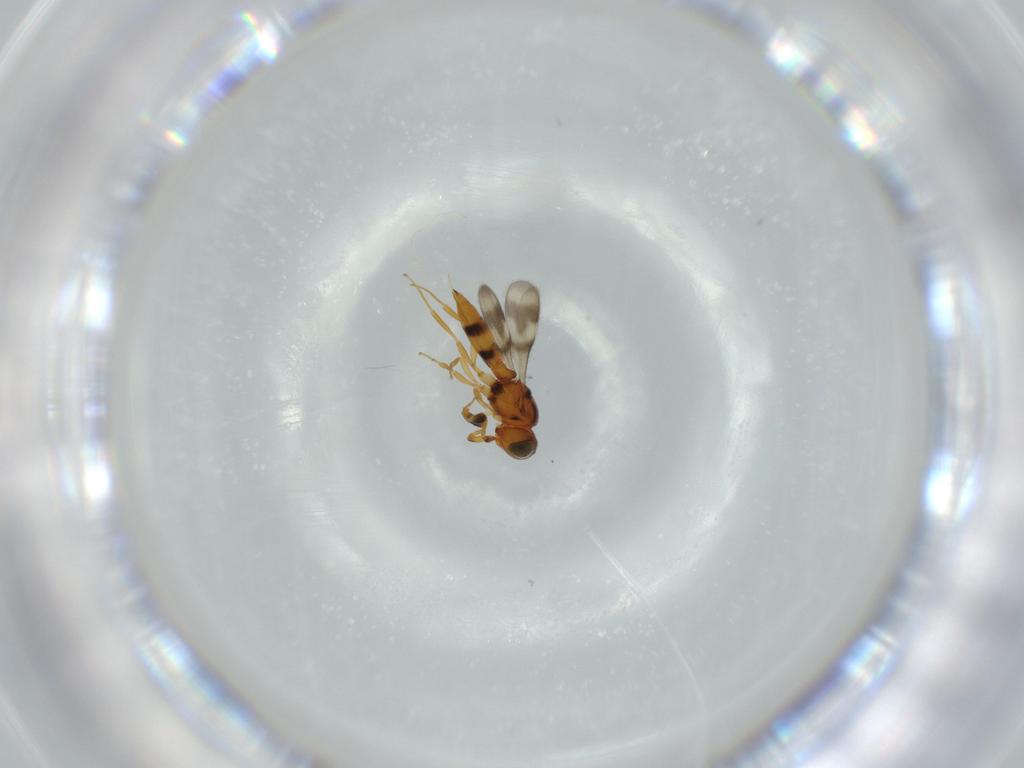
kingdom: Animalia
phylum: Arthropoda
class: Insecta
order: Hymenoptera
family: Scelionidae
